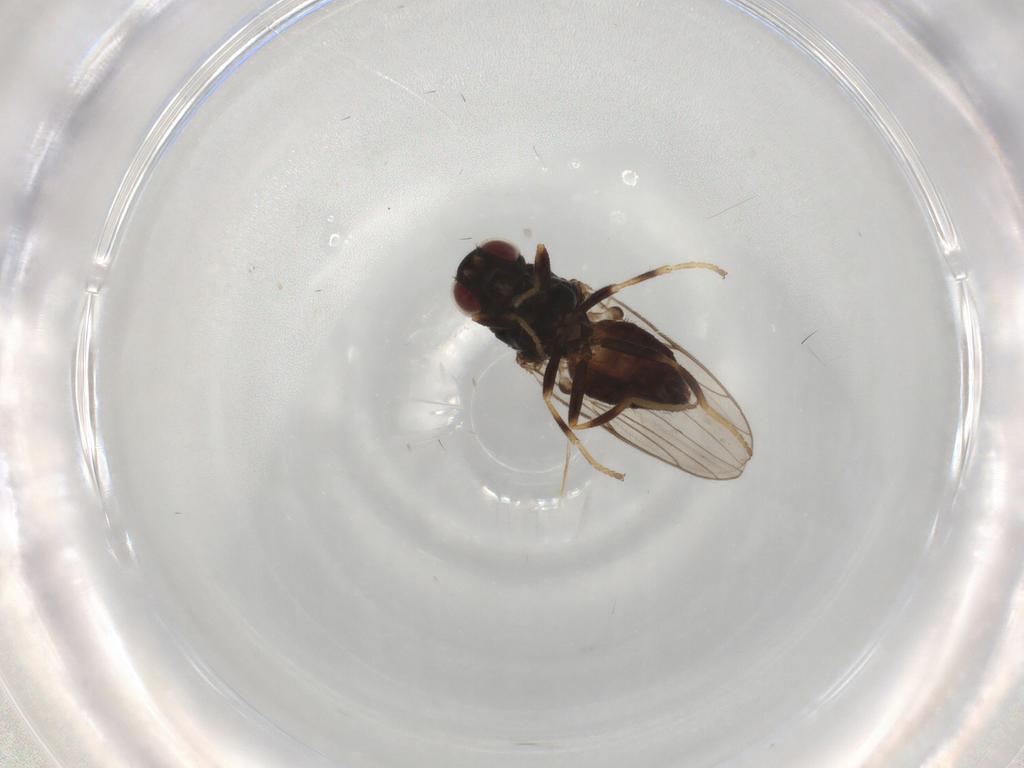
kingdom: Animalia
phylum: Arthropoda
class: Insecta
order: Diptera
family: Chloropidae
